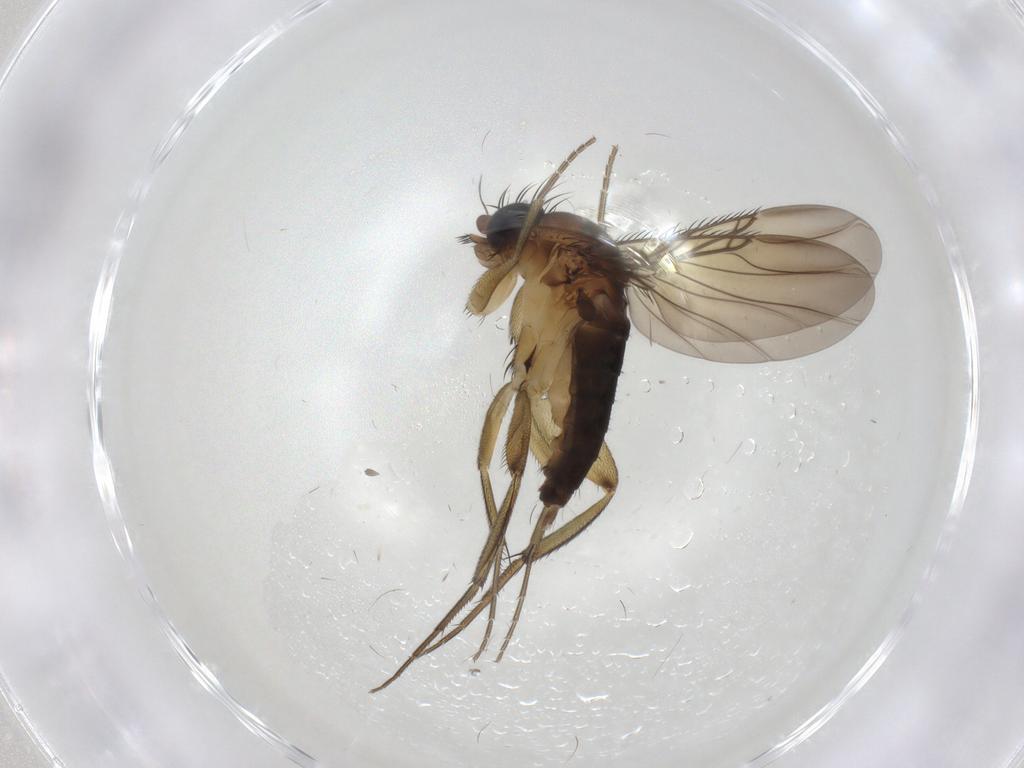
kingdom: Animalia
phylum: Arthropoda
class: Insecta
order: Diptera
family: Phoridae
